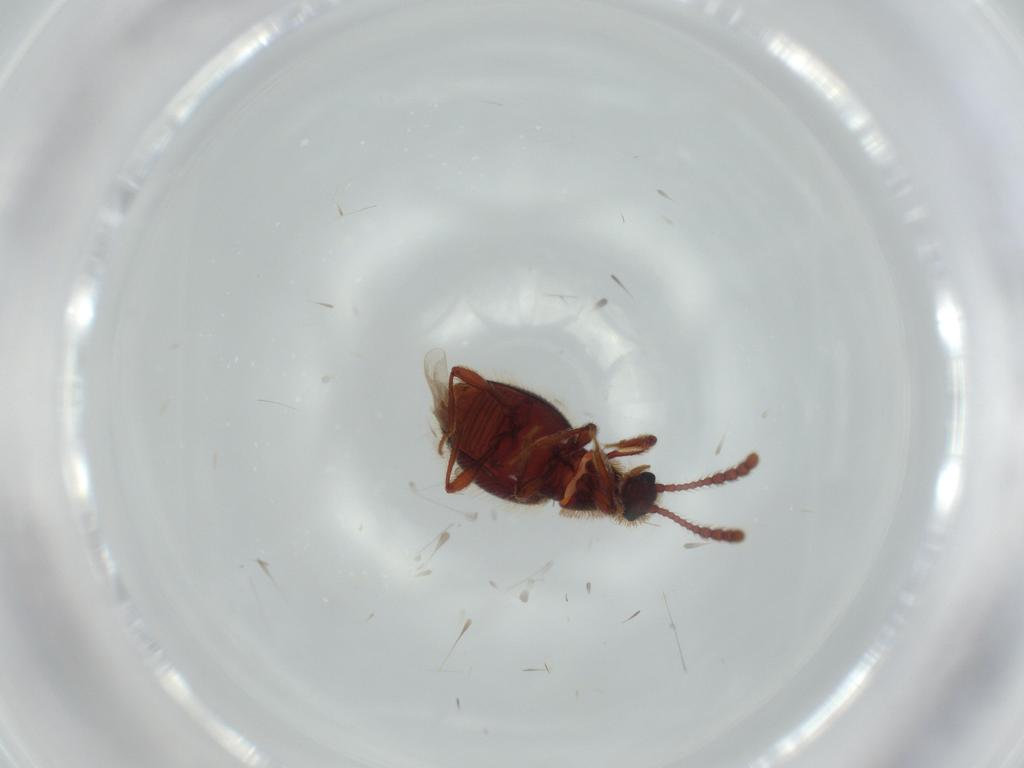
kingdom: Animalia
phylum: Arthropoda
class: Insecta
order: Coleoptera
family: Staphylinidae
